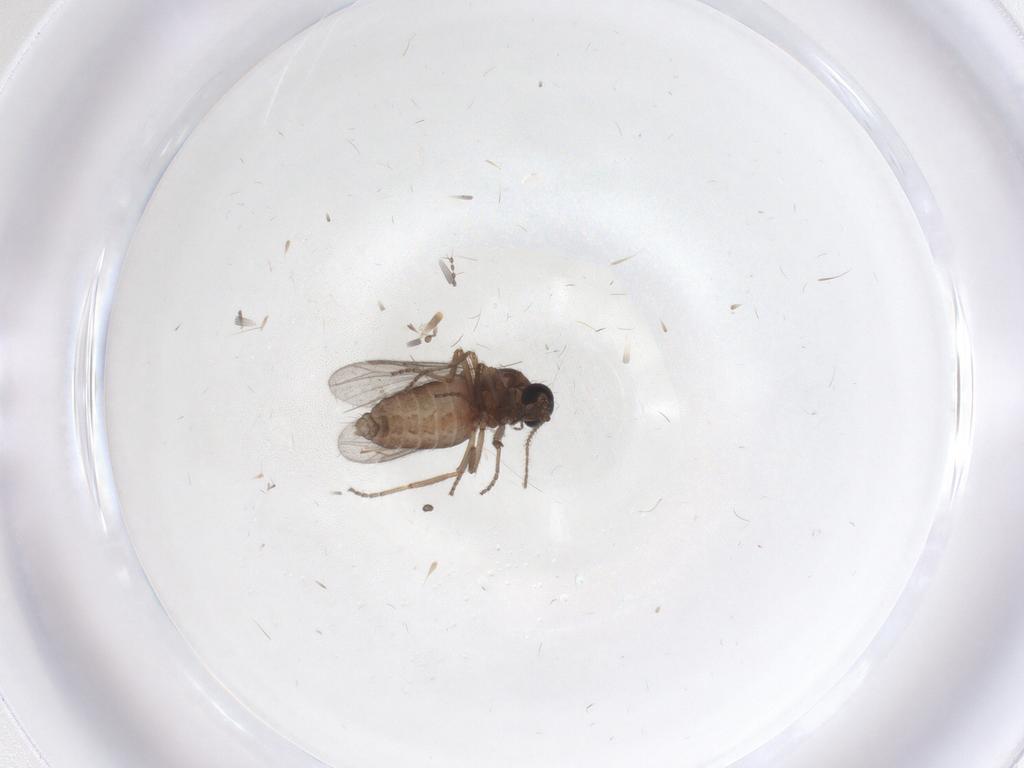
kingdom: Animalia
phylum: Arthropoda
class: Insecta
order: Diptera
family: Ceratopogonidae
